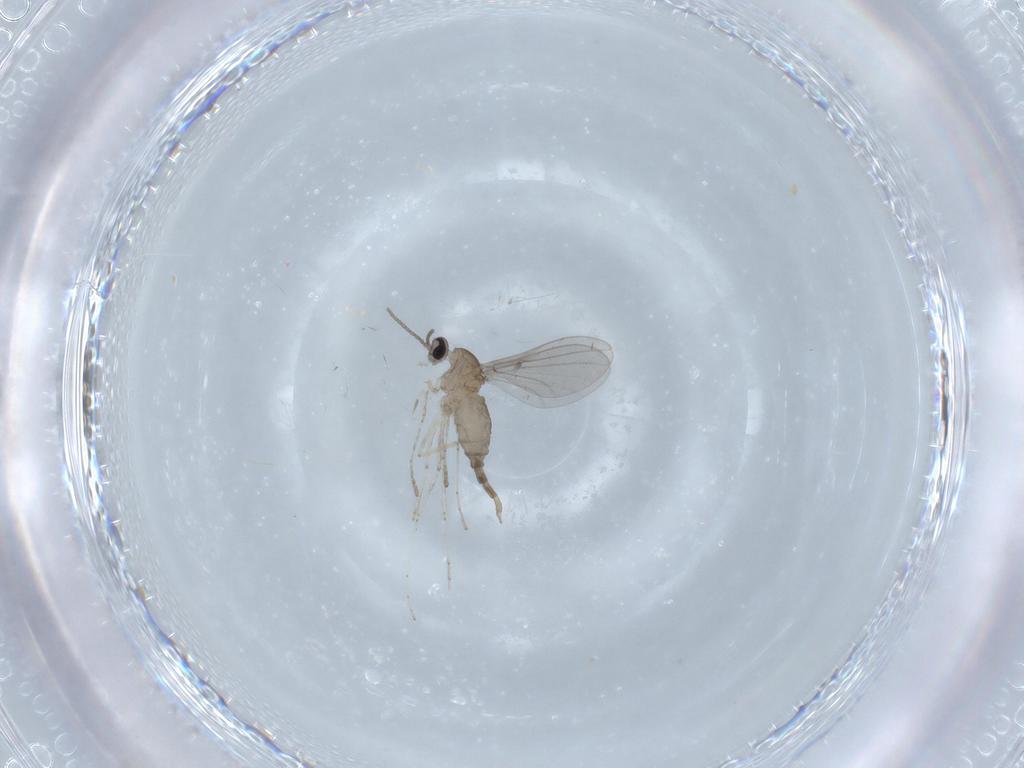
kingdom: Animalia
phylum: Arthropoda
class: Insecta
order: Diptera
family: Cecidomyiidae
